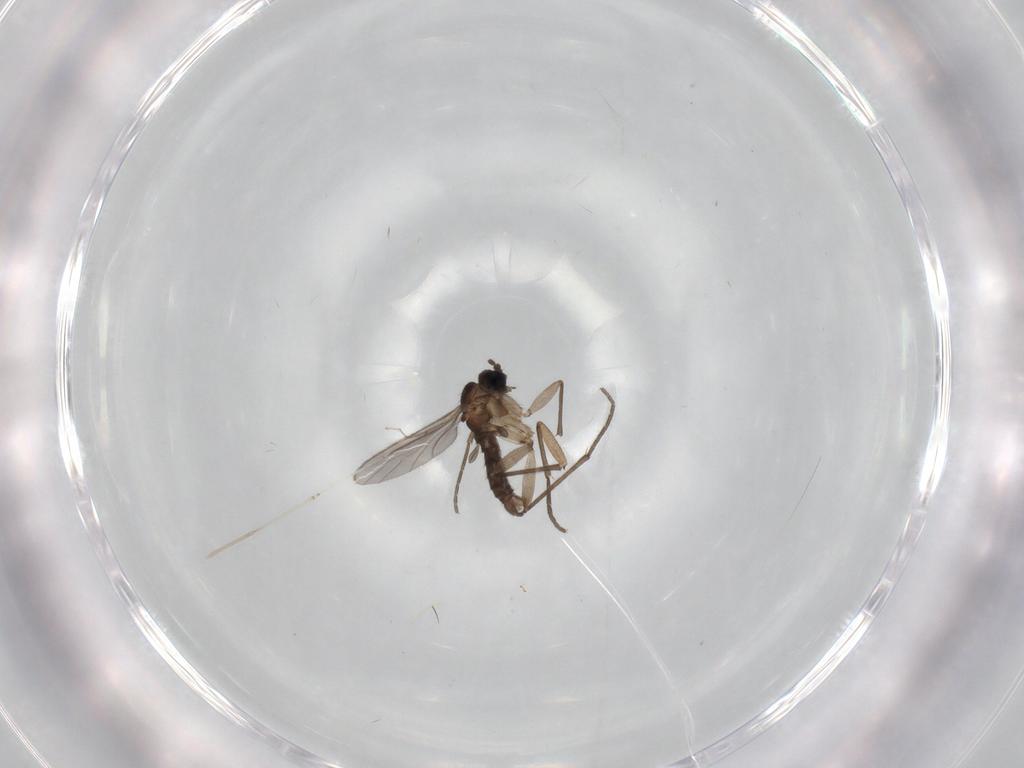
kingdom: Animalia
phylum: Arthropoda
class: Insecta
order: Diptera
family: Sciaridae
